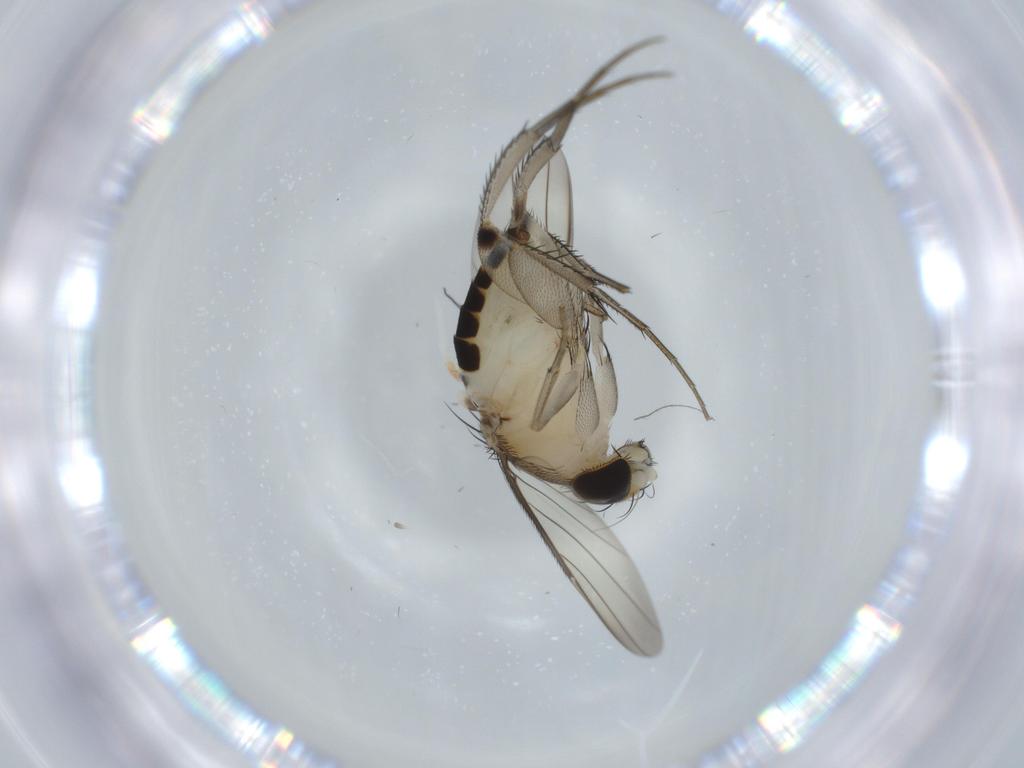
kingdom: Animalia
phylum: Arthropoda
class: Insecta
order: Diptera
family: Phoridae
